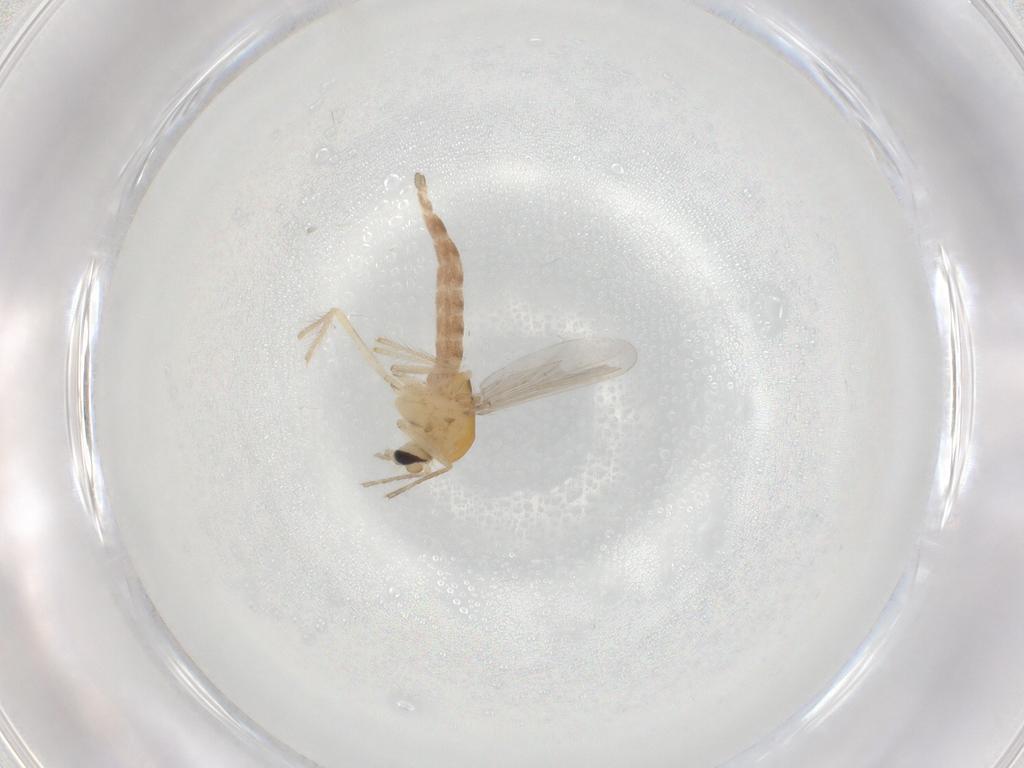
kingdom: Animalia
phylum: Arthropoda
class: Insecta
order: Diptera
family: Chironomidae
